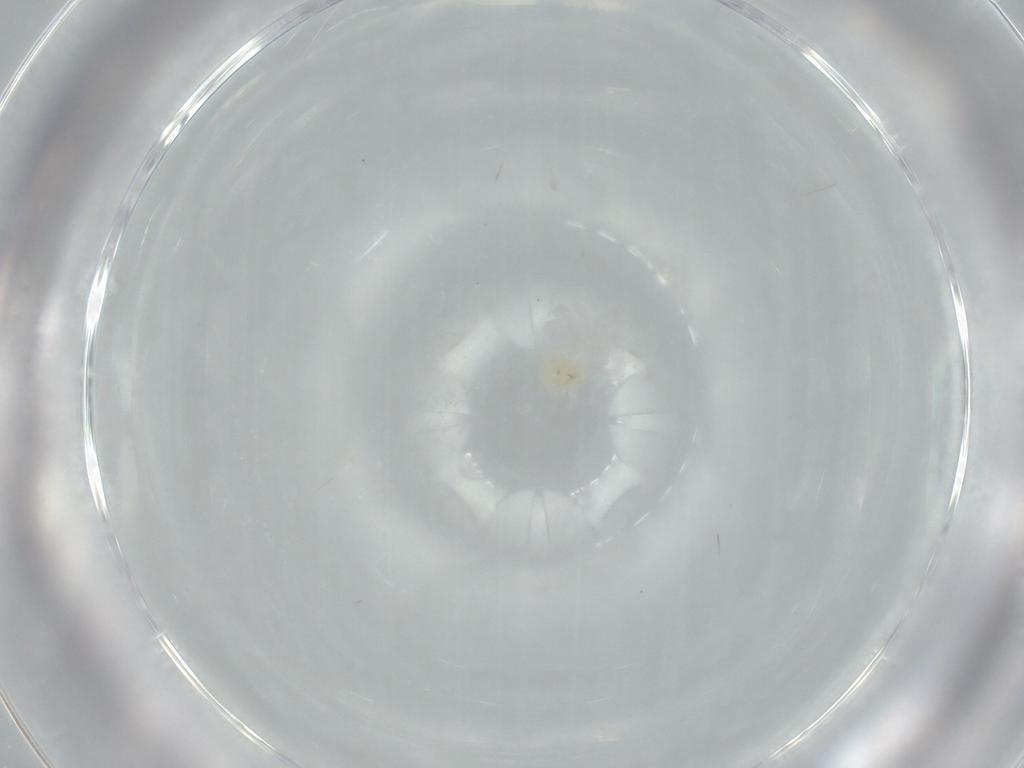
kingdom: Animalia
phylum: Arthropoda
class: Arachnida
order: Trombidiformes
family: Anystidae
